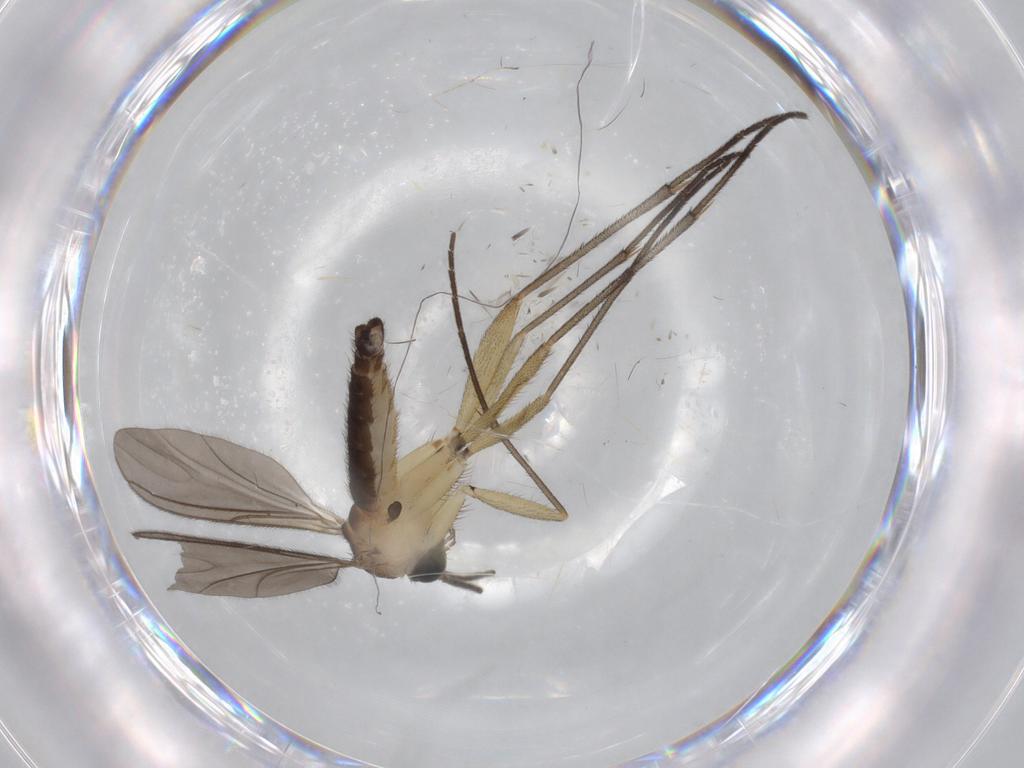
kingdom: Animalia
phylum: Arthropoda
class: Insecta
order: Diptera
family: Sciaridae
